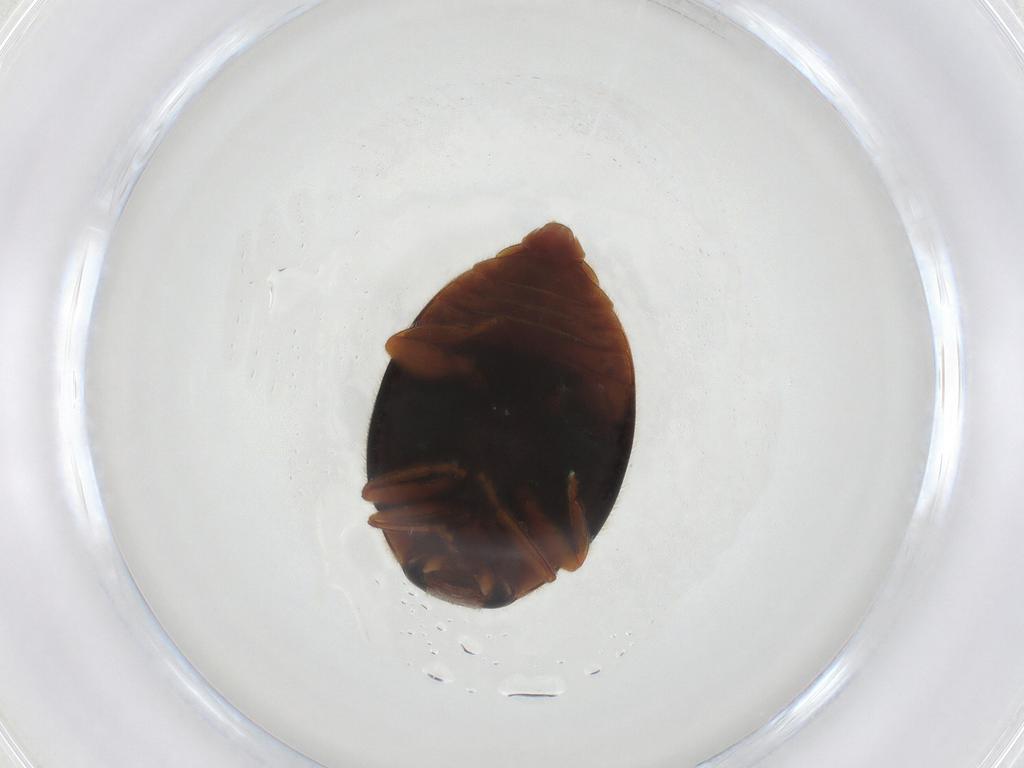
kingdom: Animalia
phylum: Arthropoda
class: Insecta
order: Coleoptera
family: Coccinellidae
